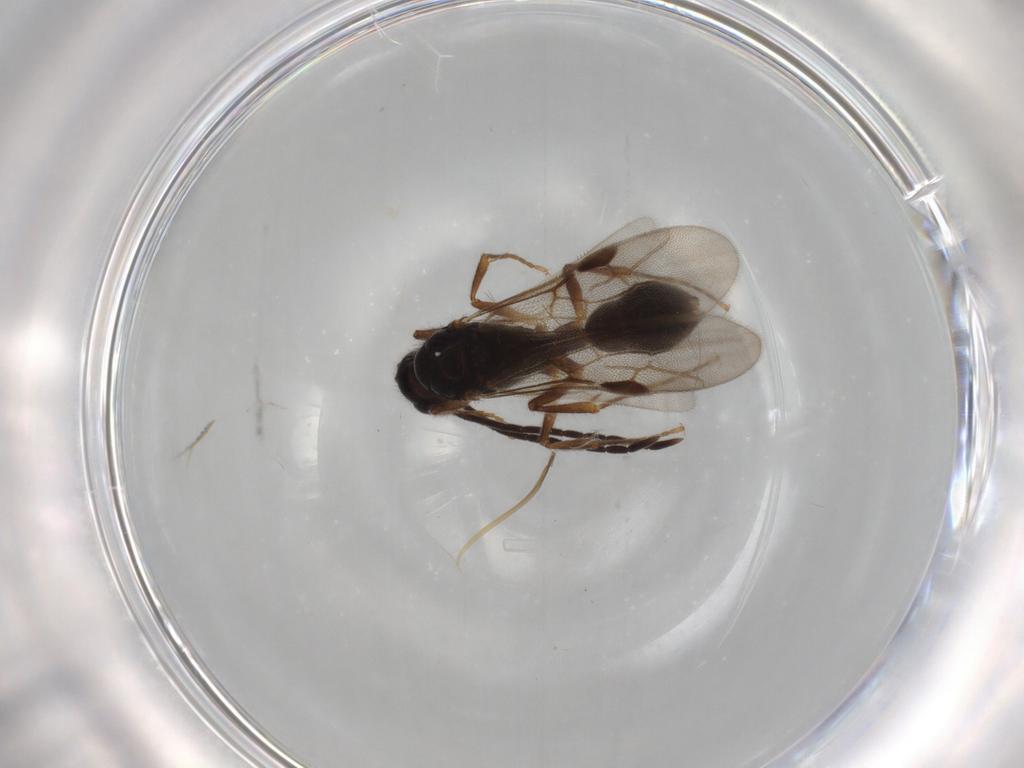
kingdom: Animalia
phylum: Arthropoda
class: Insecta
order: Hymenoptera
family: Formicidae
